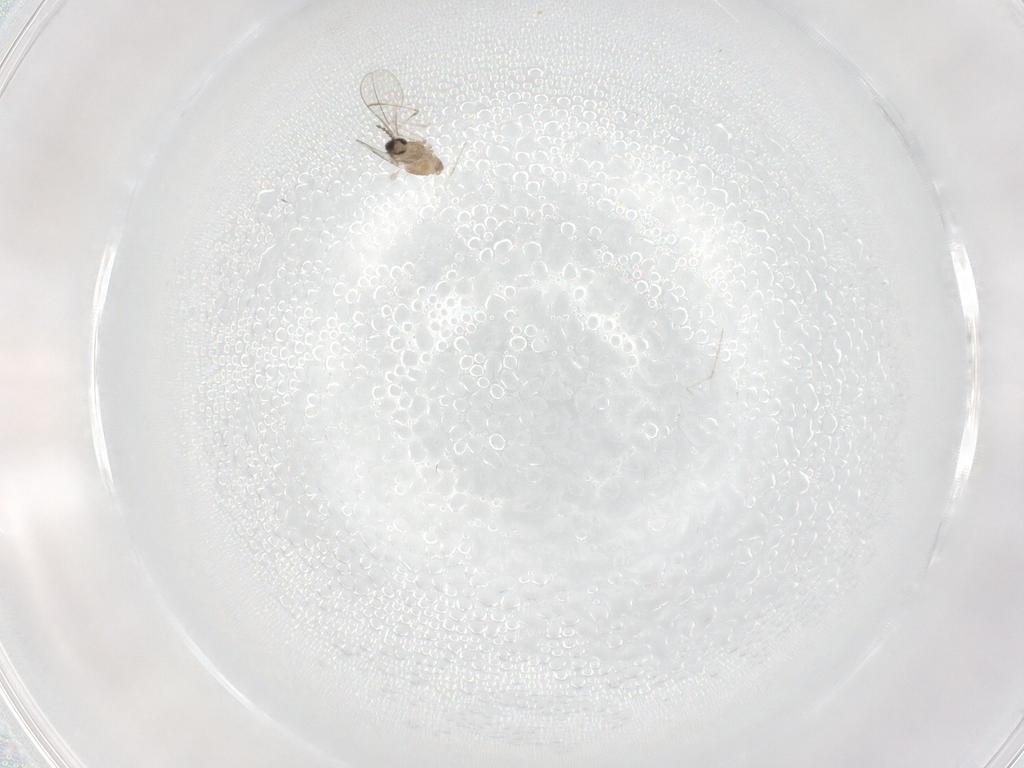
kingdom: Animalia
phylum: Arthropoda
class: Insecta
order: Diptera
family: Cecidomyiidae
